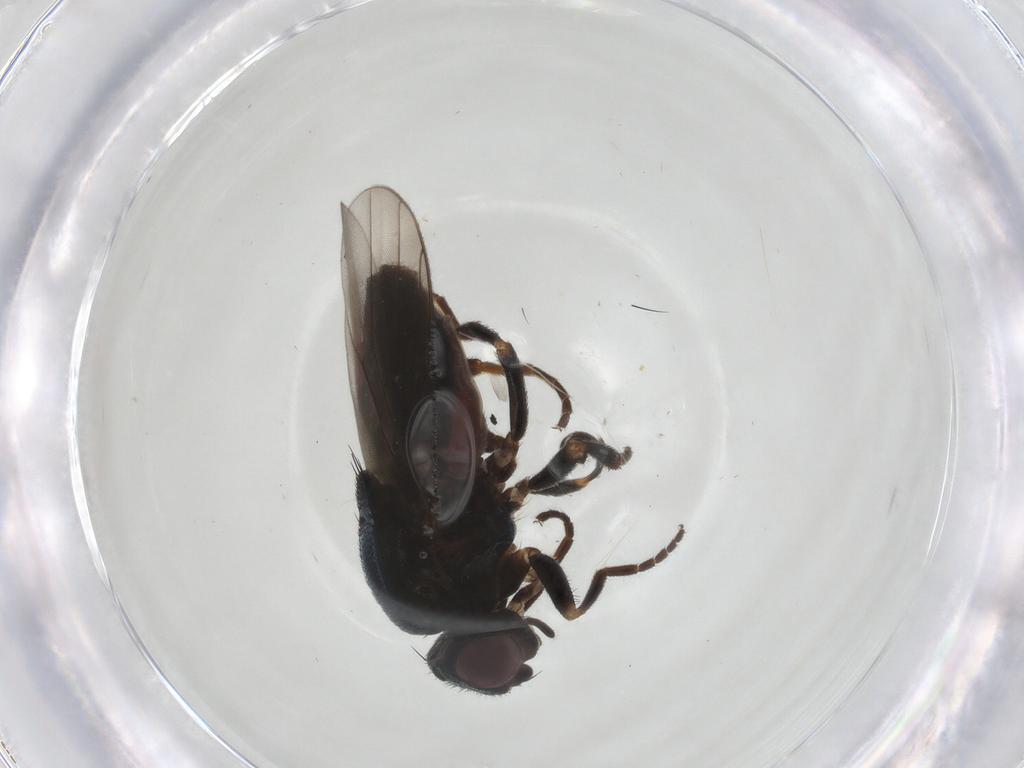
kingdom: Animalia
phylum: Arthropoda
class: Insecta
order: Diptera
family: Chloropidae
